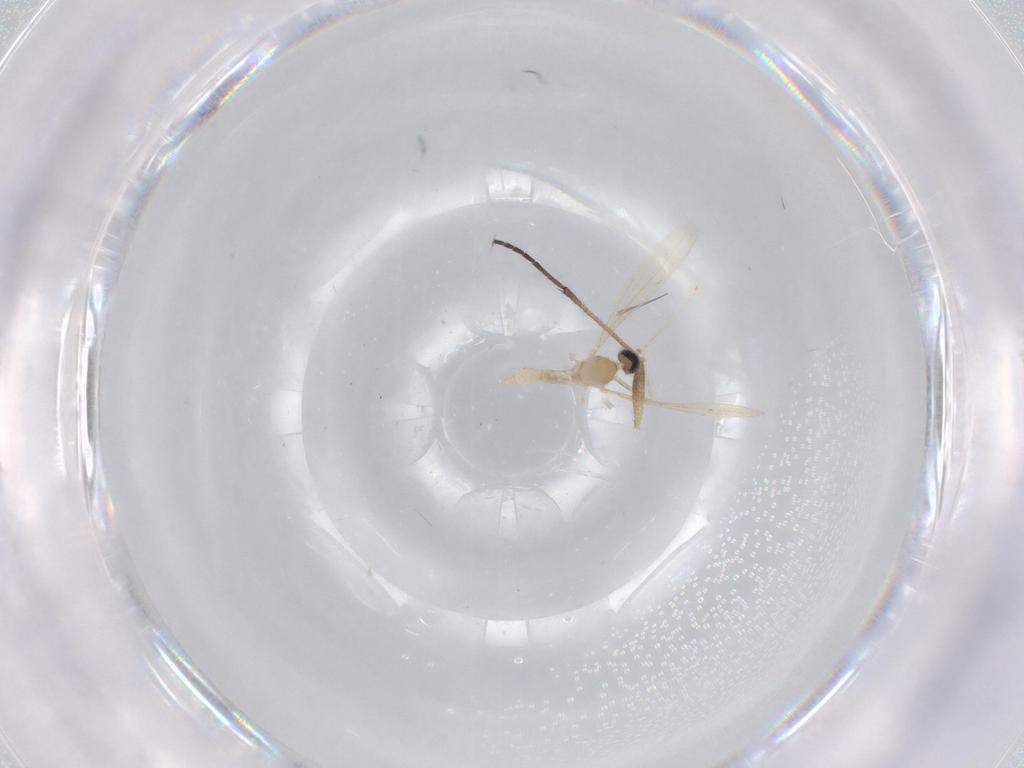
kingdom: Animalia
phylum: Arthropoda
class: Insecta
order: Diptera
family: Cecidomyiidae
